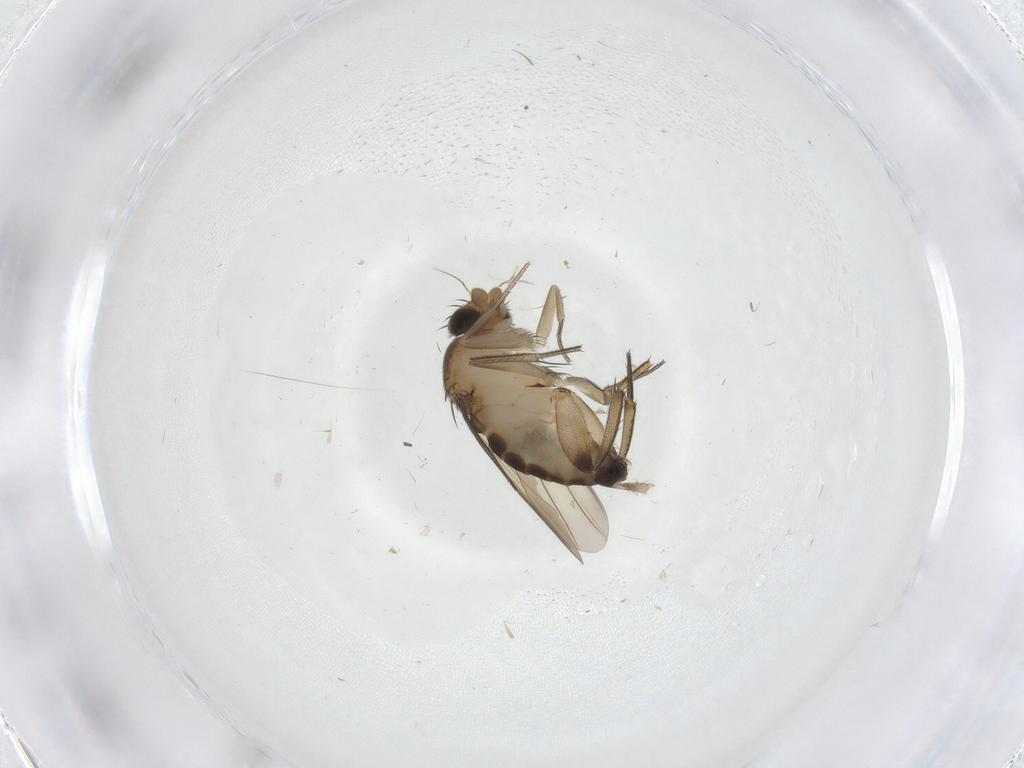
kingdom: Animalia
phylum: Arthropoda
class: Insecta
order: Diptera
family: Phoridae
